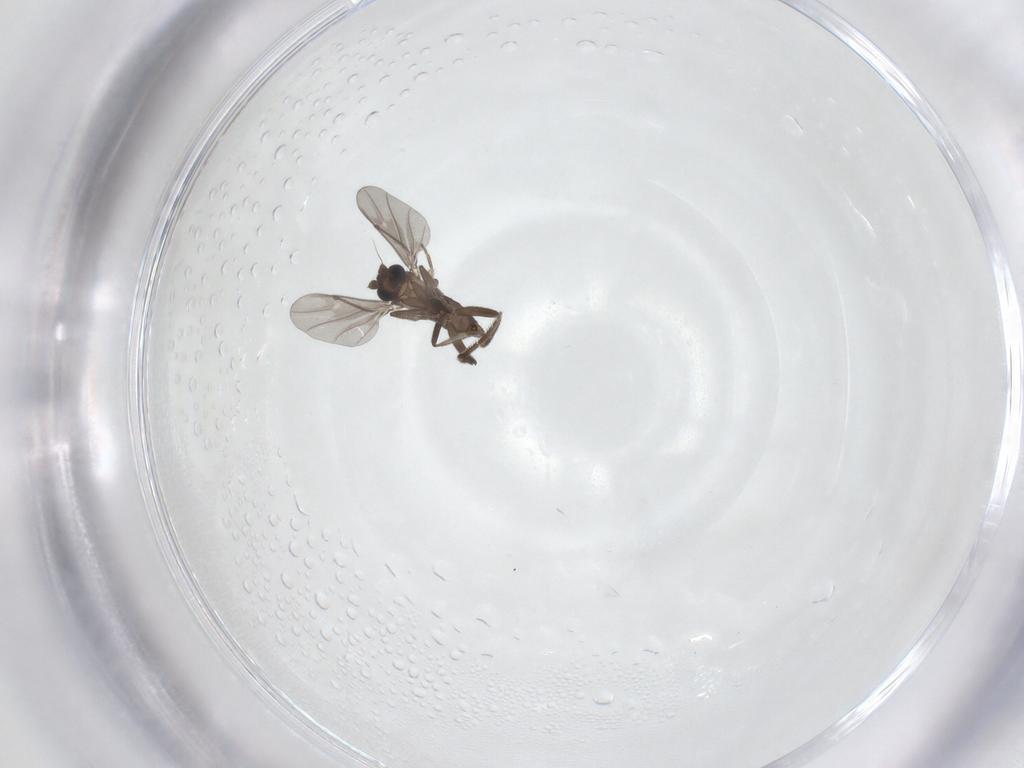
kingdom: Animalia
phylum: Arthropoda
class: Insecta
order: Diptera
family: Phoridae
